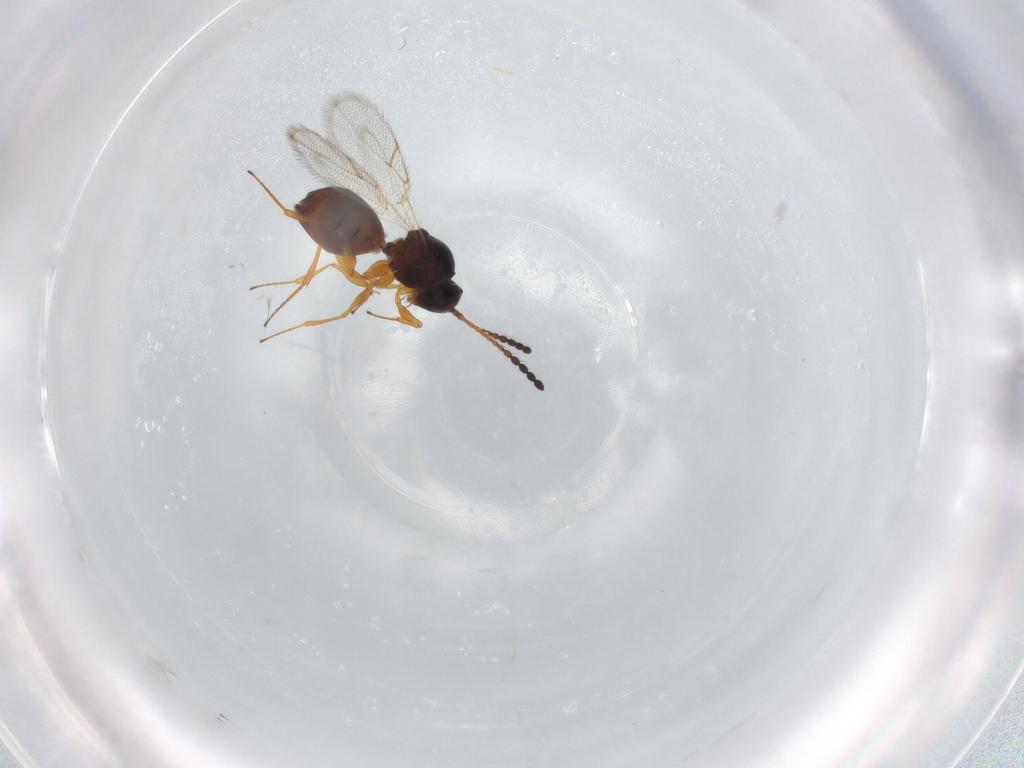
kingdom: Animalia
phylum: Arthropoda
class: Insecta
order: Hymenoptera
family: Figitidae
